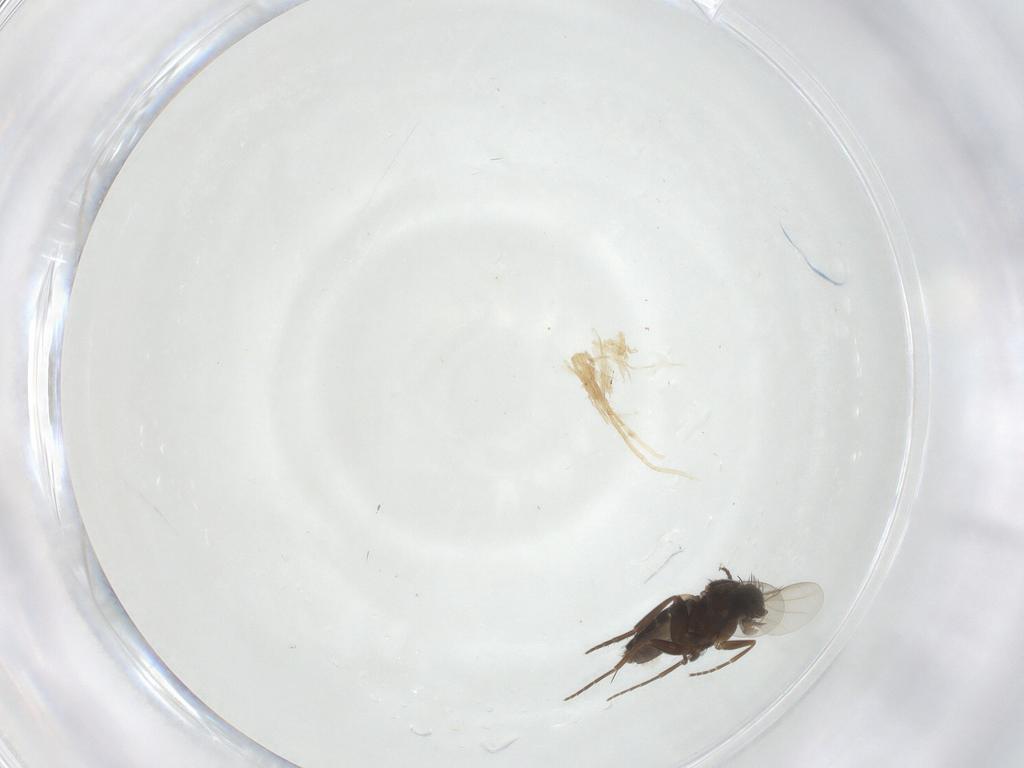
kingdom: Animalia
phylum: Arthropoda
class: Insecta
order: Diptera
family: Phoridae
